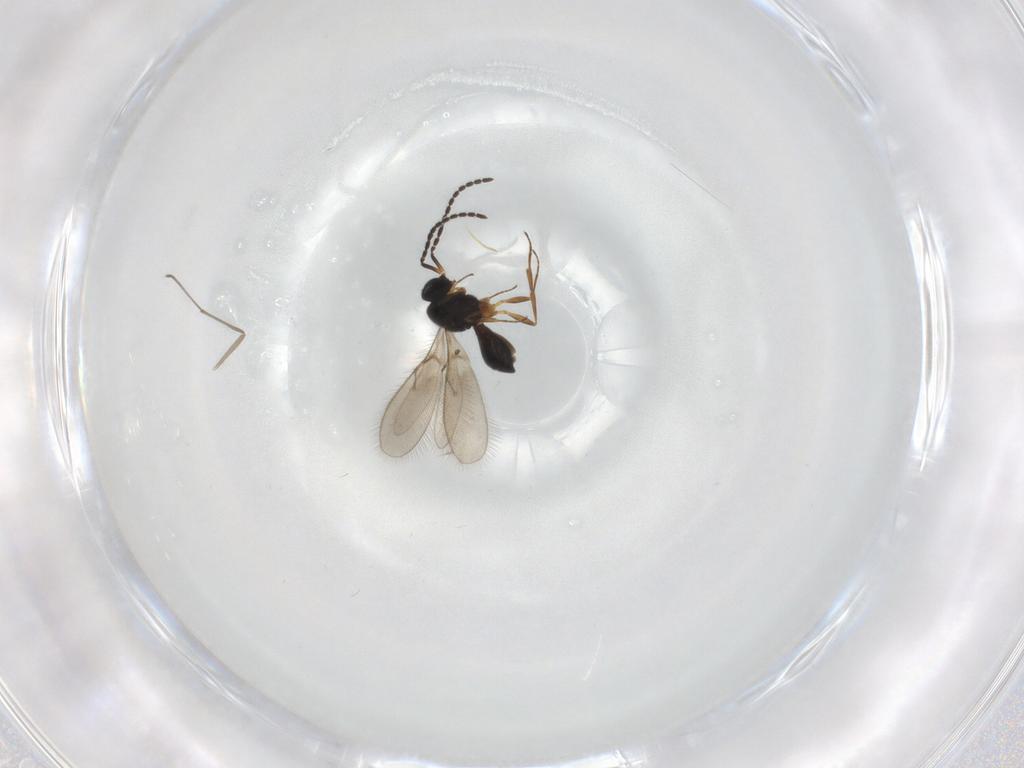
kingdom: Animalia
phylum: Arthropoda
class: Insecta
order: Hymenoptera
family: Scelionidae
